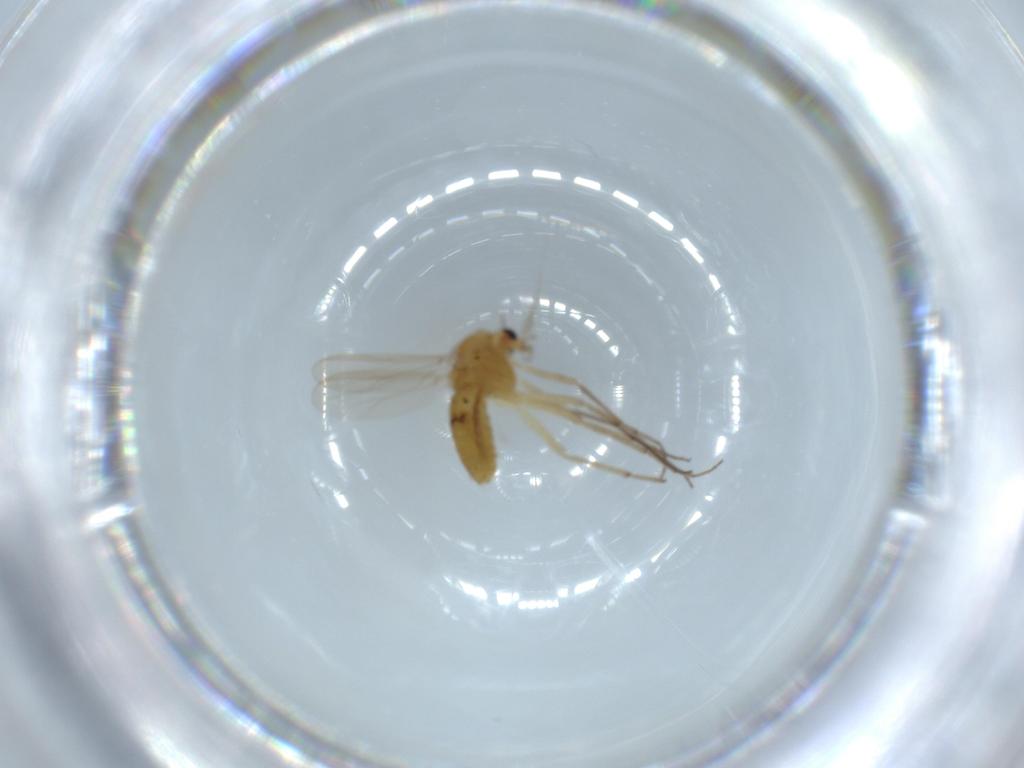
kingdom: Animalia
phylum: Arthropoda
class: Insecta
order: Diptera
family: Chironomidae
